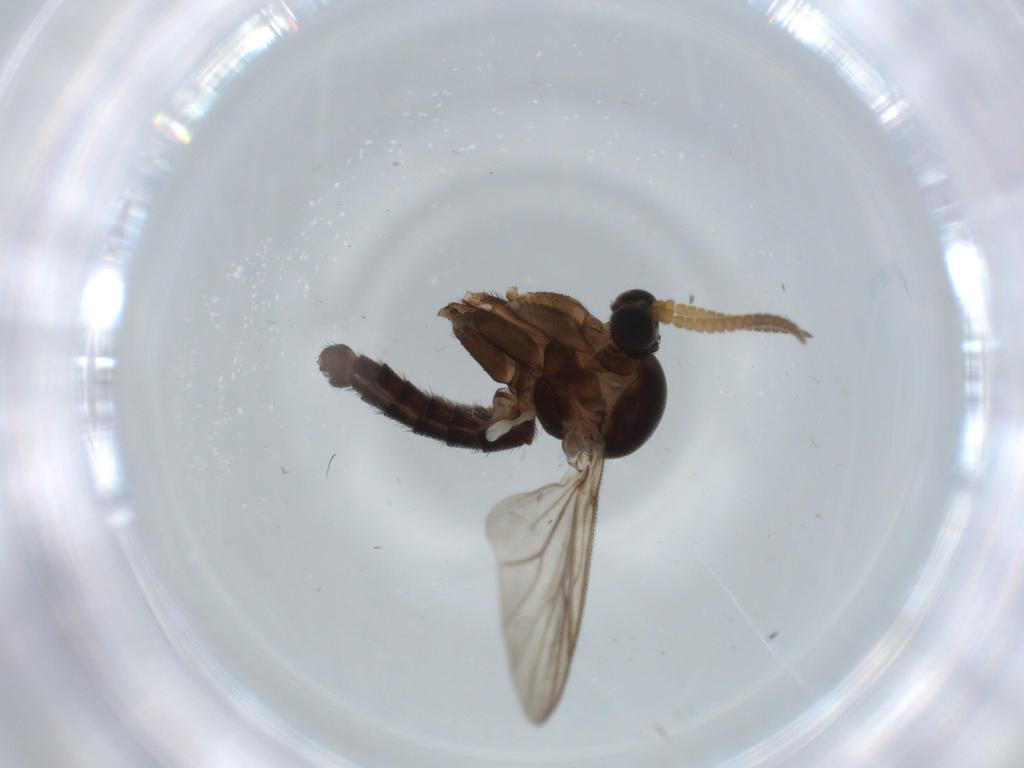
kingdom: Animalia
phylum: Arthropoda
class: Insecta
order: Diptera
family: Mycetophilidae
